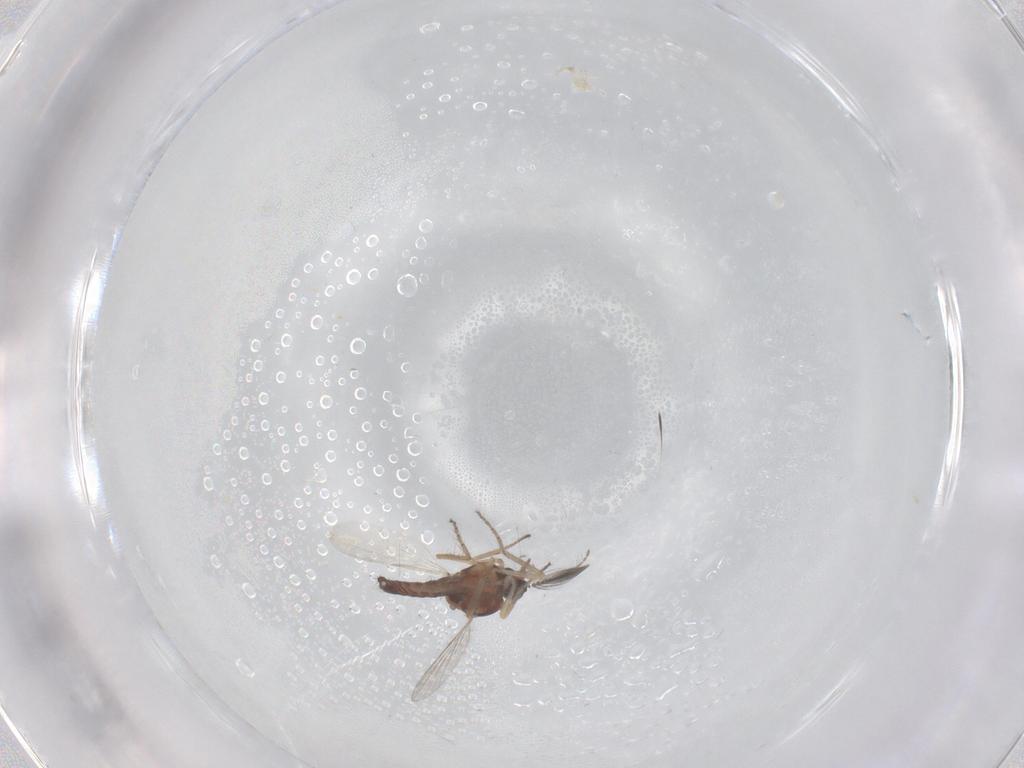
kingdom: Animalia
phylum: Arthropoda
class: Insecta
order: Diptera
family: Ceratopogonidae
